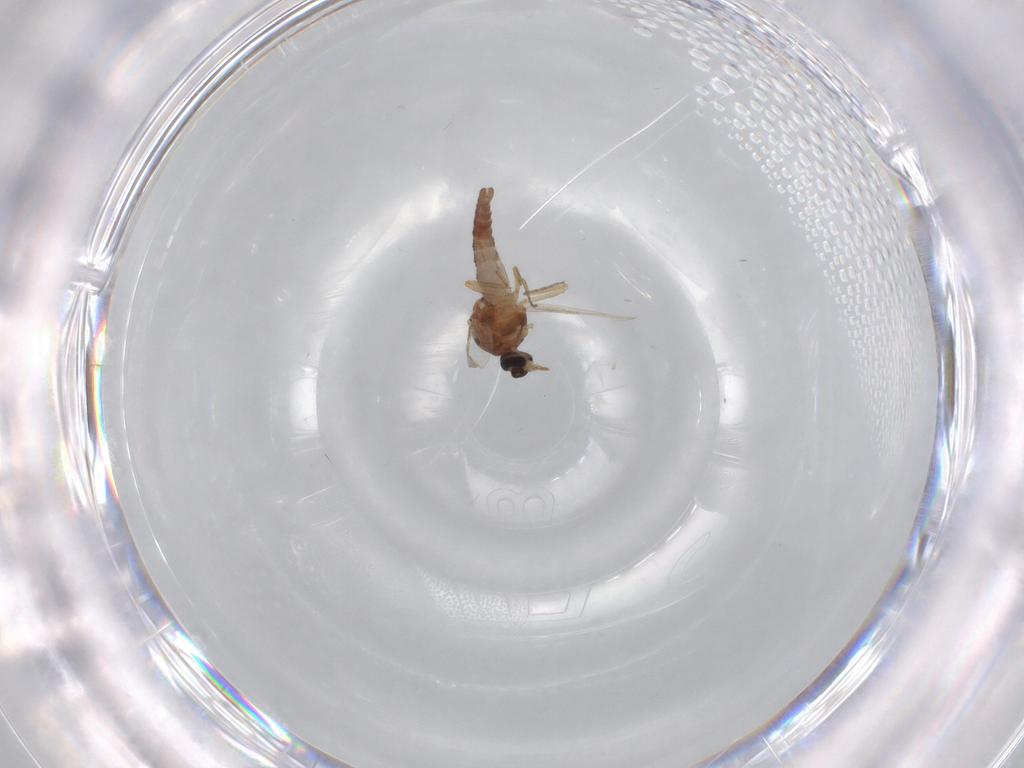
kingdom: Animalia
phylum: Arthropoda
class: Insecta
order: Diptera
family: Ceratopogonidae
